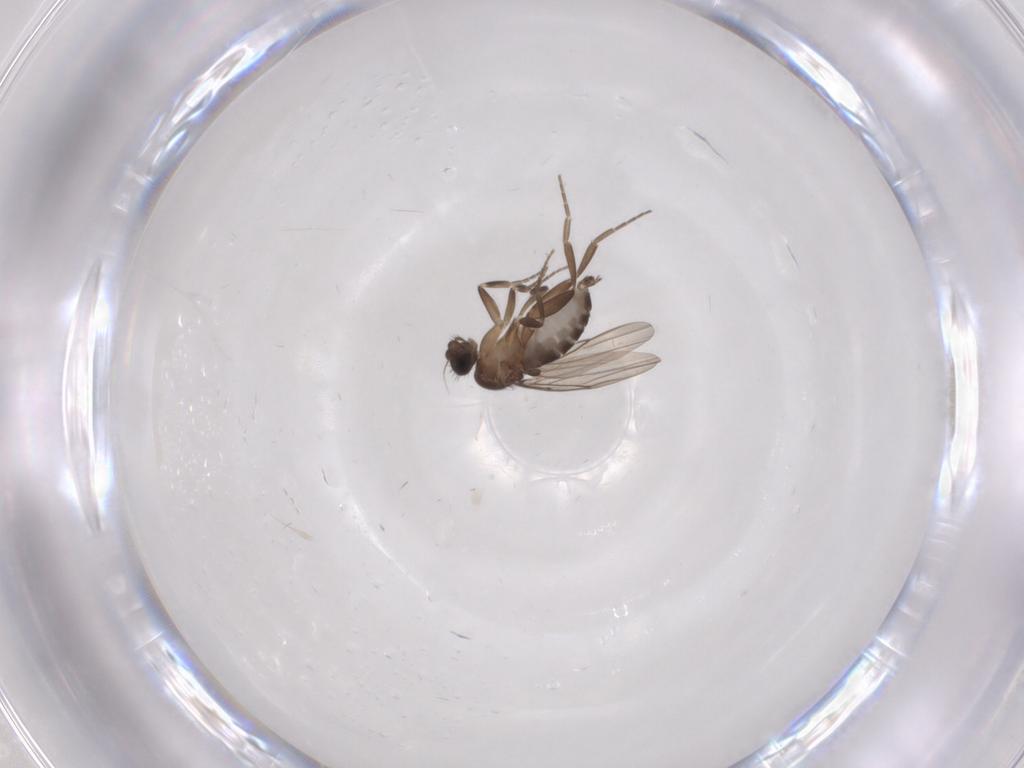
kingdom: Animalia
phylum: Arthropoda
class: Insecta
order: Diptera
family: Phoridae
